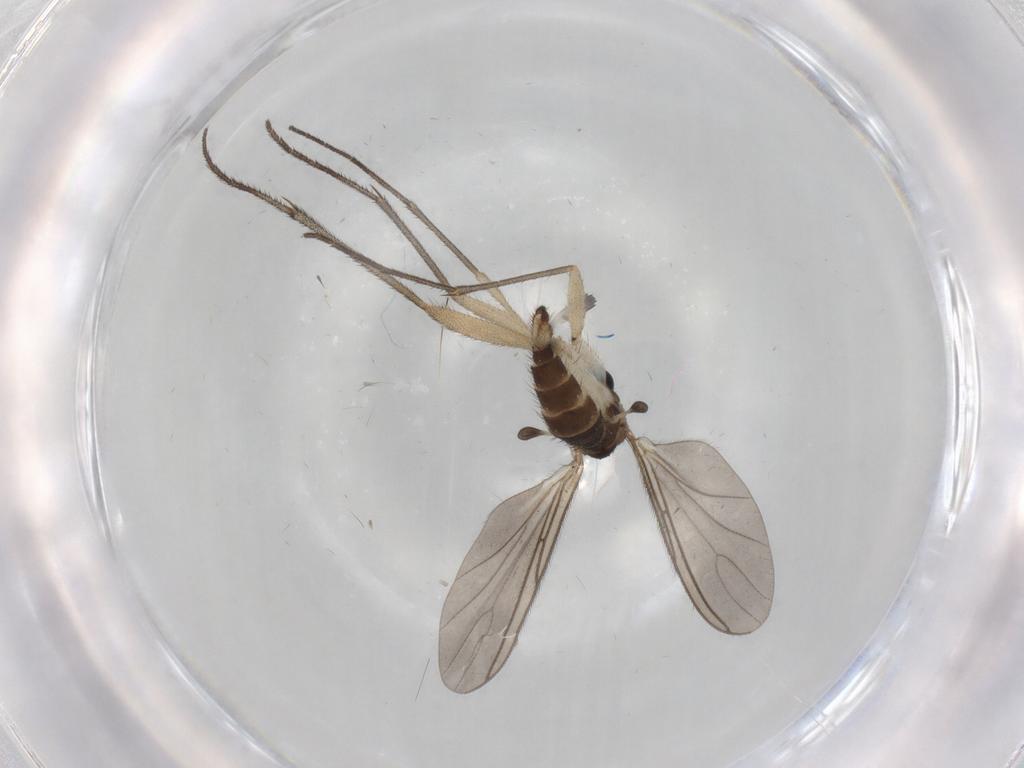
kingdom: Animalia
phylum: Arthropoda
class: Insecta
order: Diptera
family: Sciaridae
